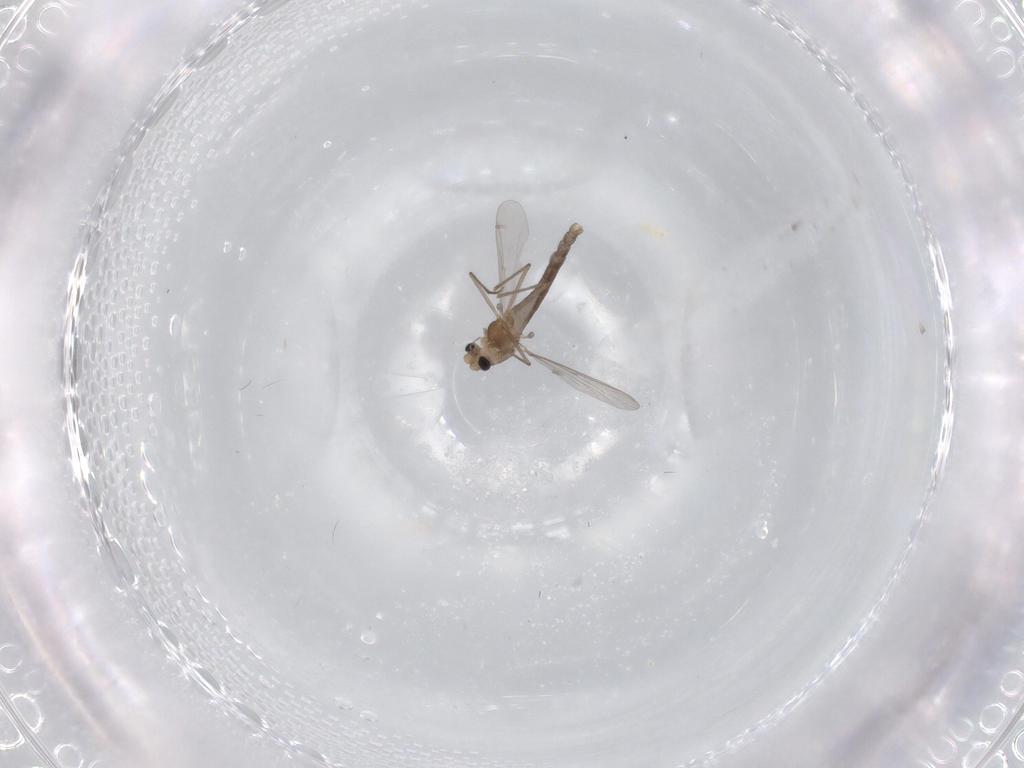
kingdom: Animalia
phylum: Arthropoda
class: Insecta
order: Diptera
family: Chironomidae
